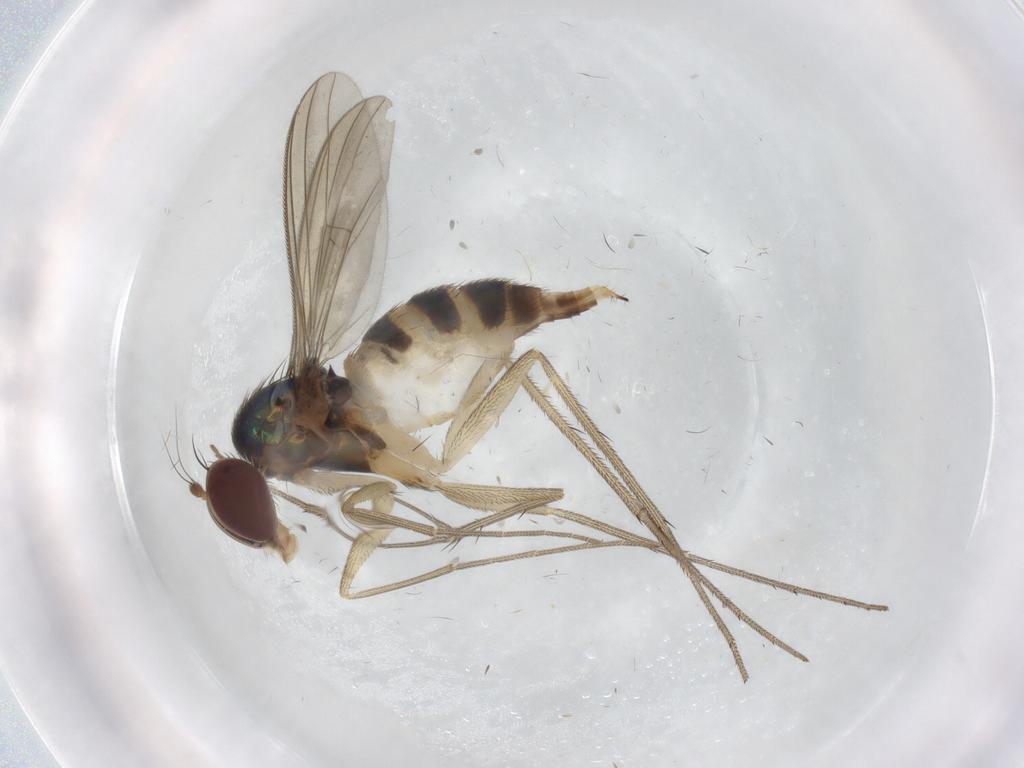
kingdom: Animalia
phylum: Arthropoda
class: Insecta
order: Diptera
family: Dolichopodidae
